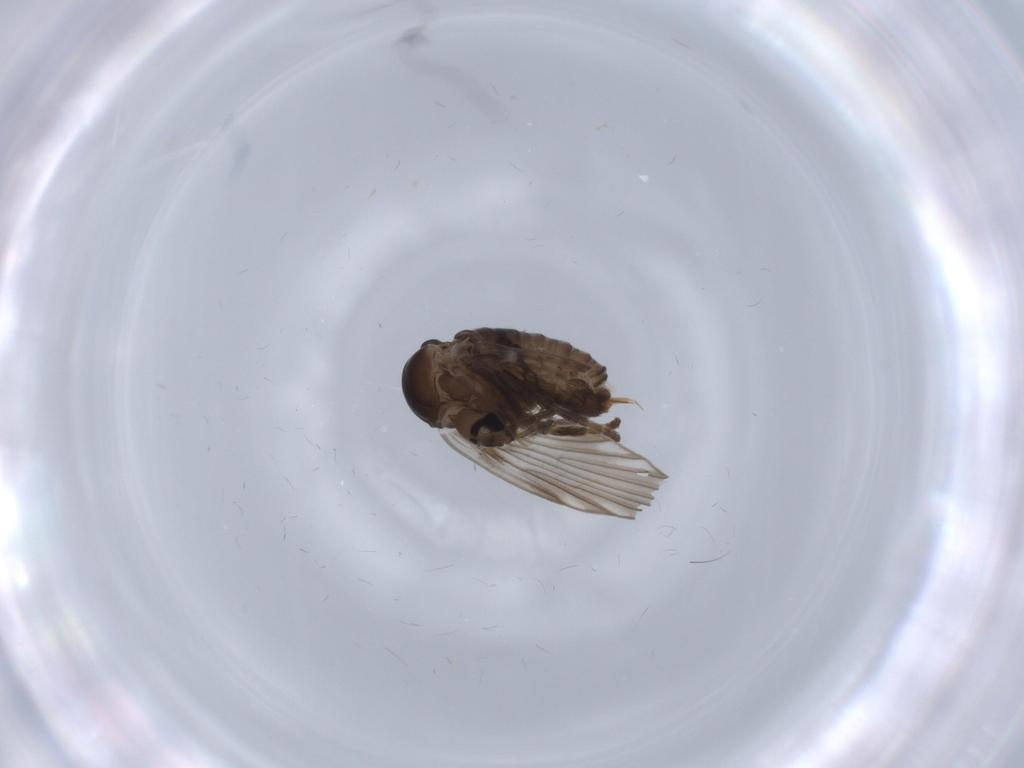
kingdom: Animalia
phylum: Arthropoda
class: Insecta
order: Diptera
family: Psychodidae
